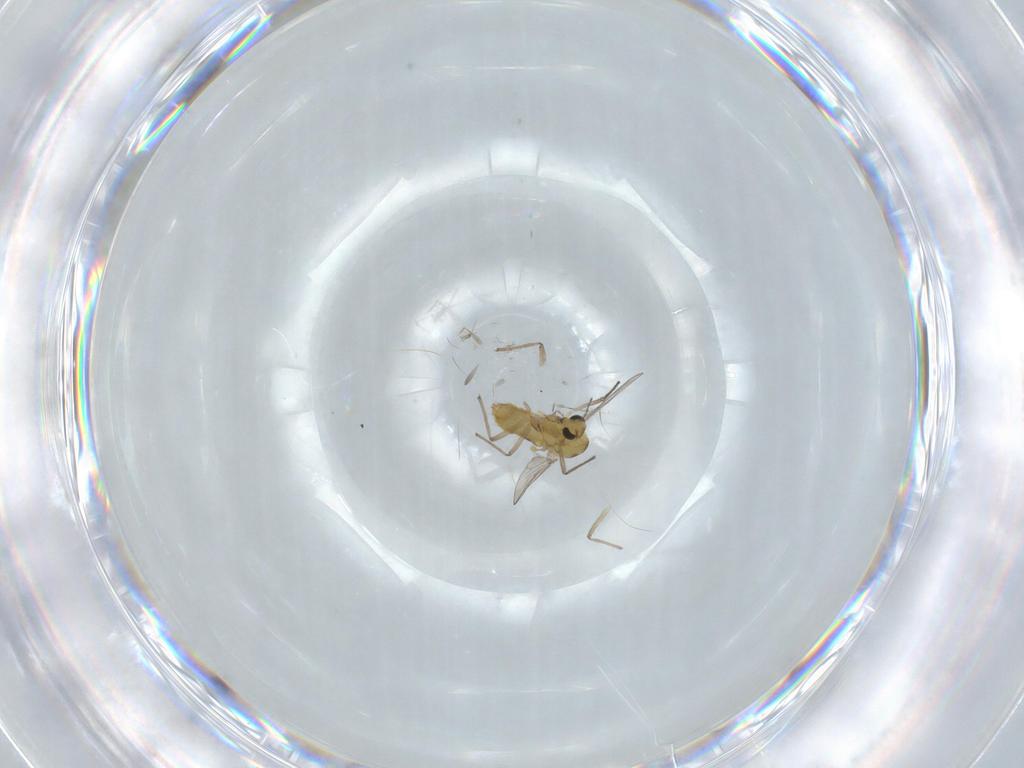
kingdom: Animalia
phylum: Arthropoda
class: Insecta
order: Diptera
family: Chironomidae
